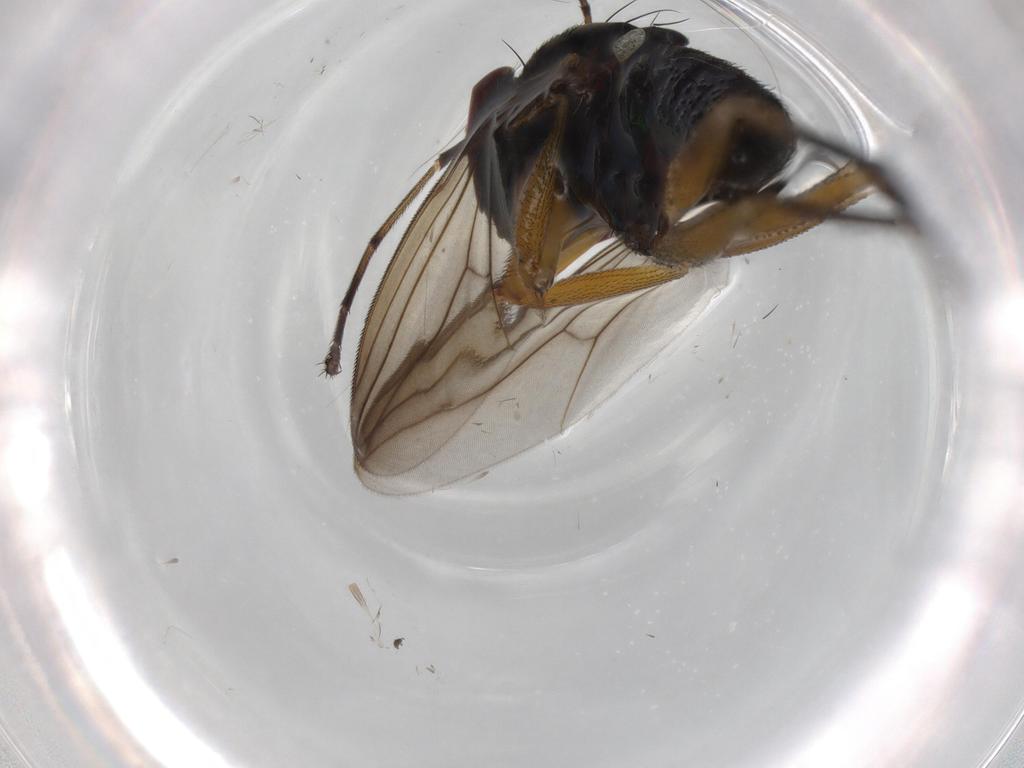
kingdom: Animalia
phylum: Arthropoda
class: Insecta
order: Diptera
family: Dolichopodidae
